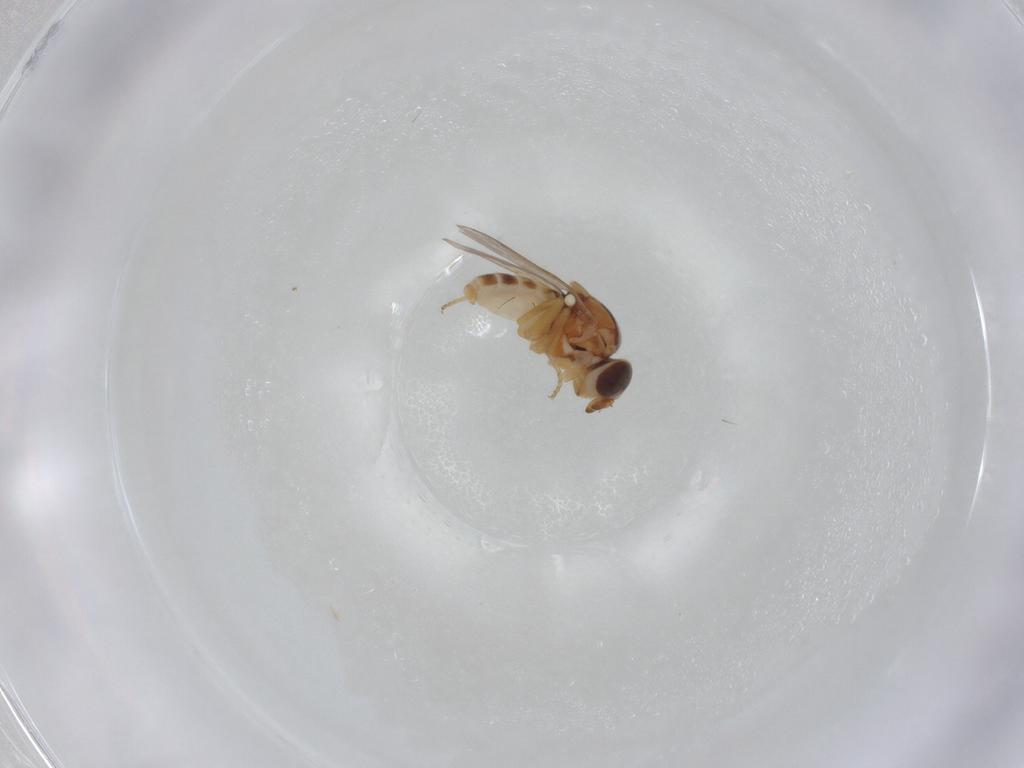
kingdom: Animalia
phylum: Arthropoda
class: Insecta
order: Diptera
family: Chloropidae
